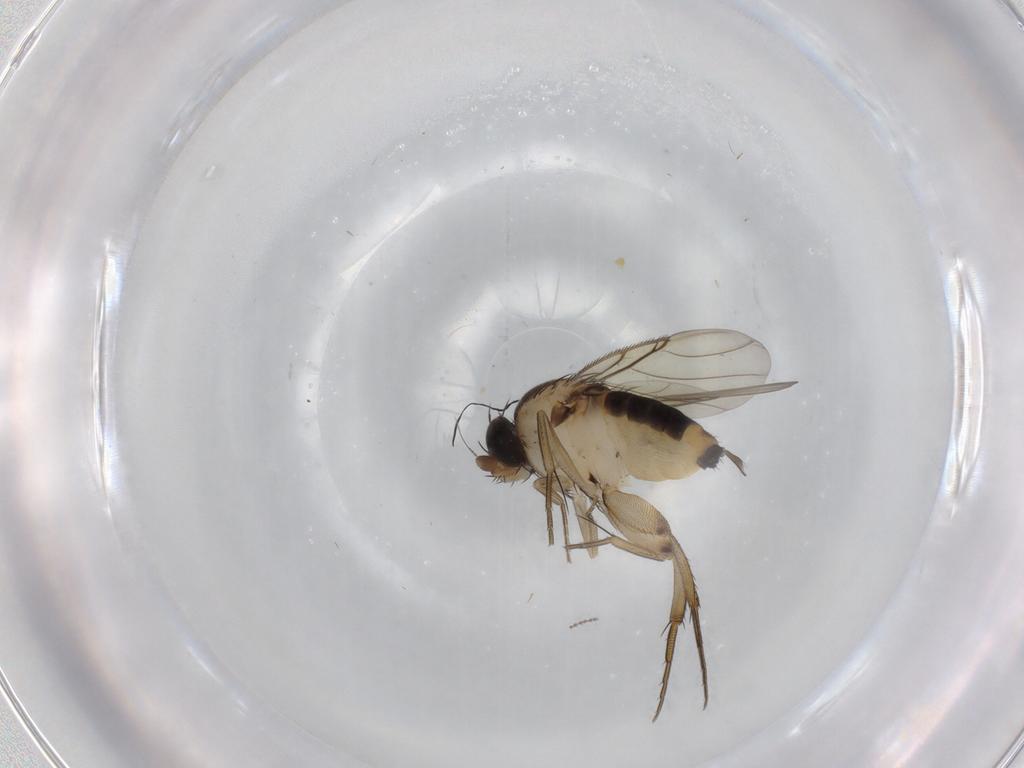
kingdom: Animalia
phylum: Arthropoda
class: Insecta
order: Diptera
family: Phoridae
